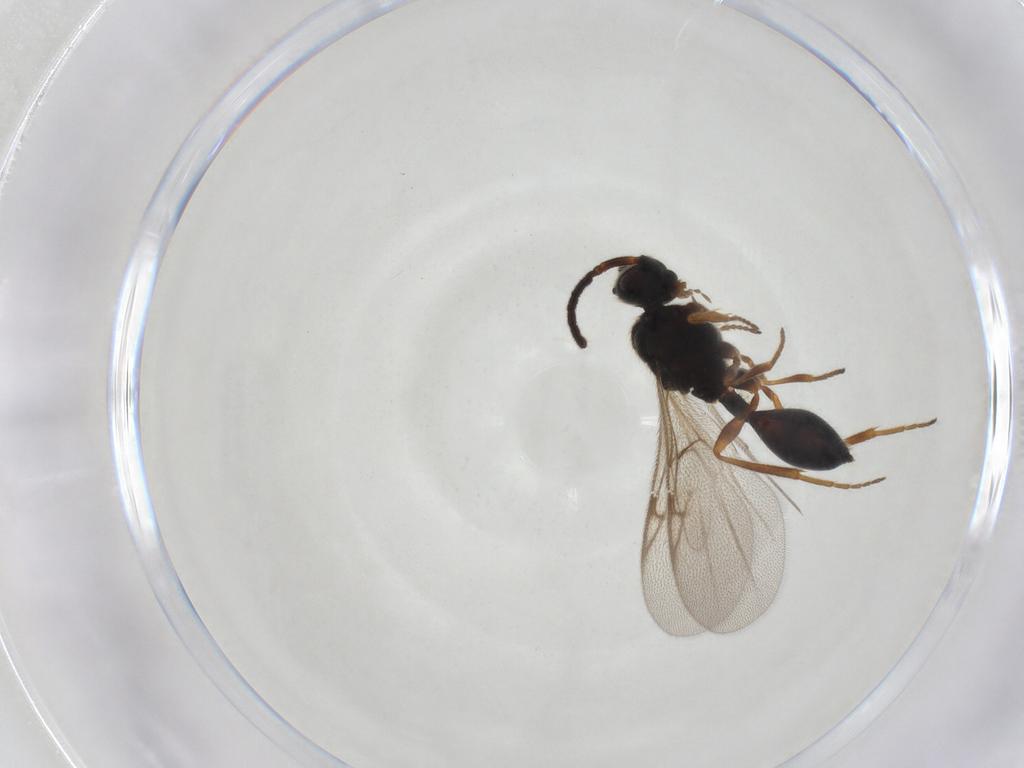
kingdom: Animalia
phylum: Arthropoda
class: Insecta
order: Hymenoptera
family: Diapriidae
